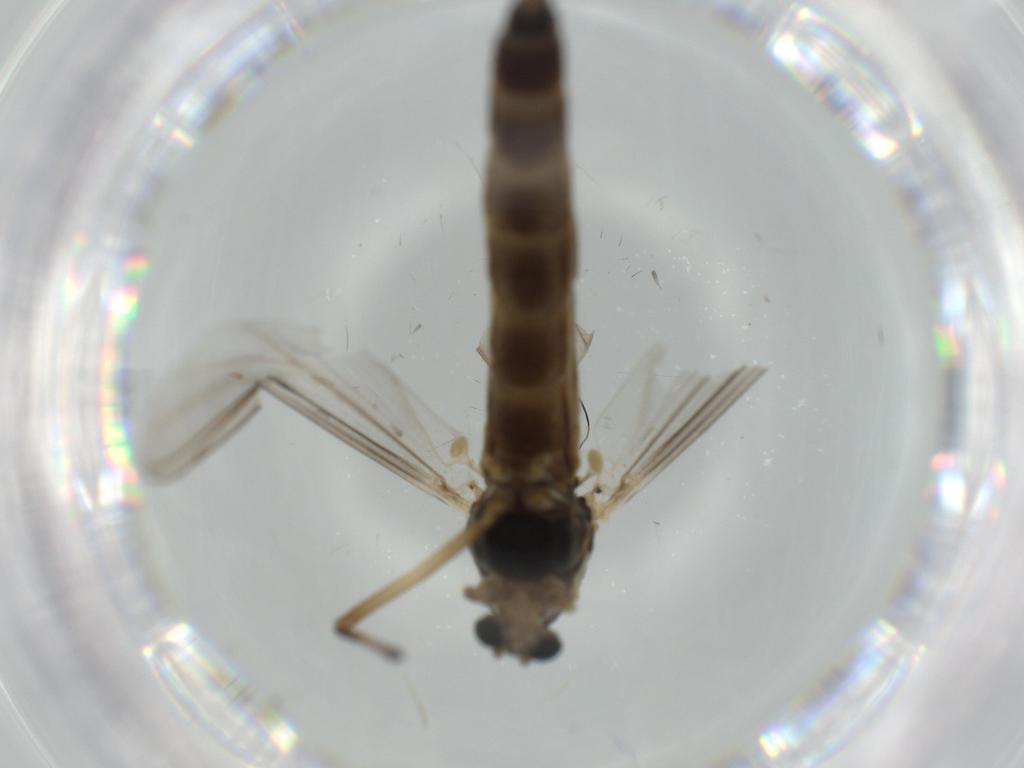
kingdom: Animalia
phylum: Arthropoda
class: Insecta
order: Diptera
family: Chironomidae
